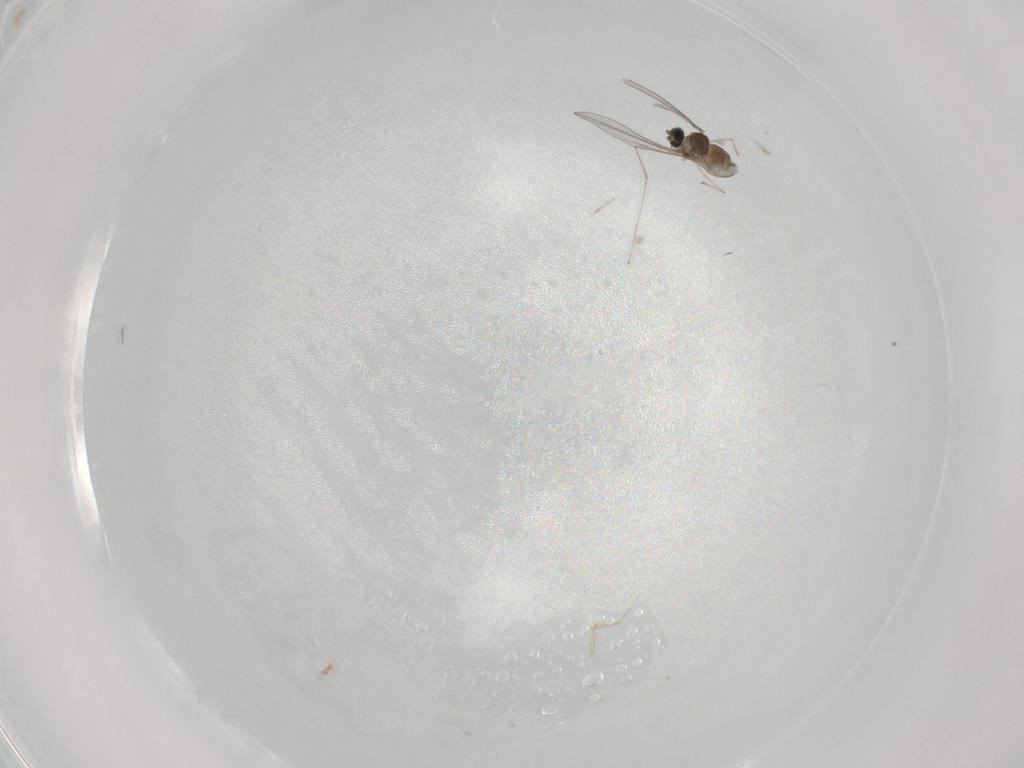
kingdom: Animalia
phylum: Arthropoda
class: Insecta
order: Diptera
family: Cecidomyiidae
